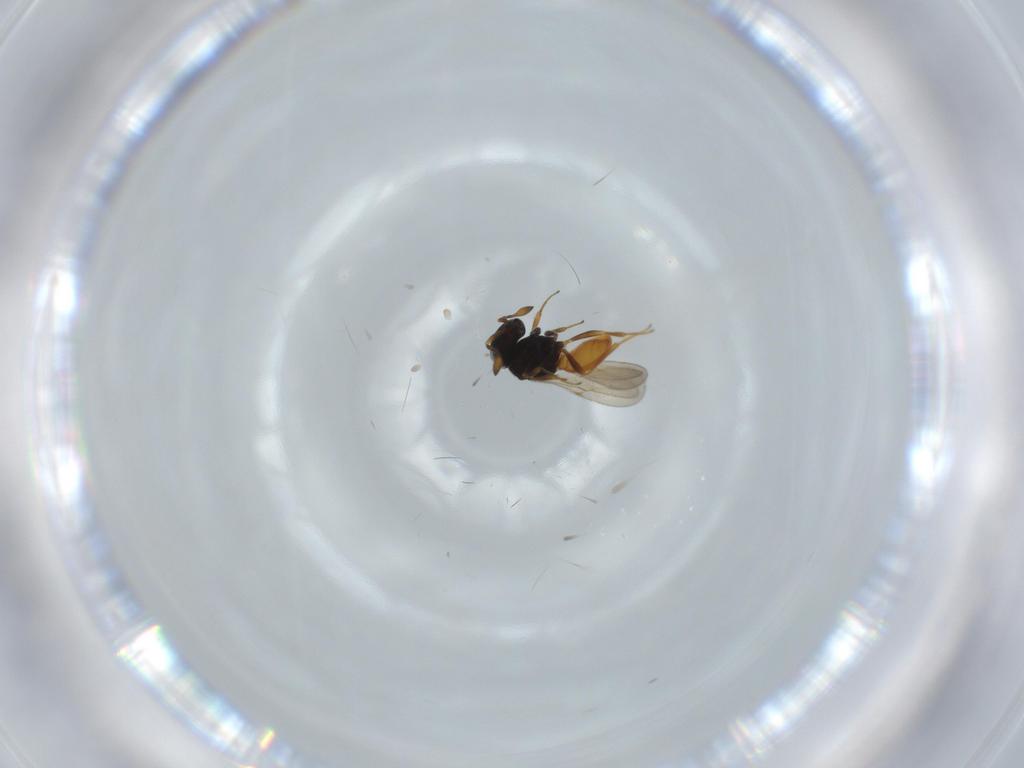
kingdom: Animalia
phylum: Arthropoda
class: Insecta
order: Hymenoptera
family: Scelionidae
